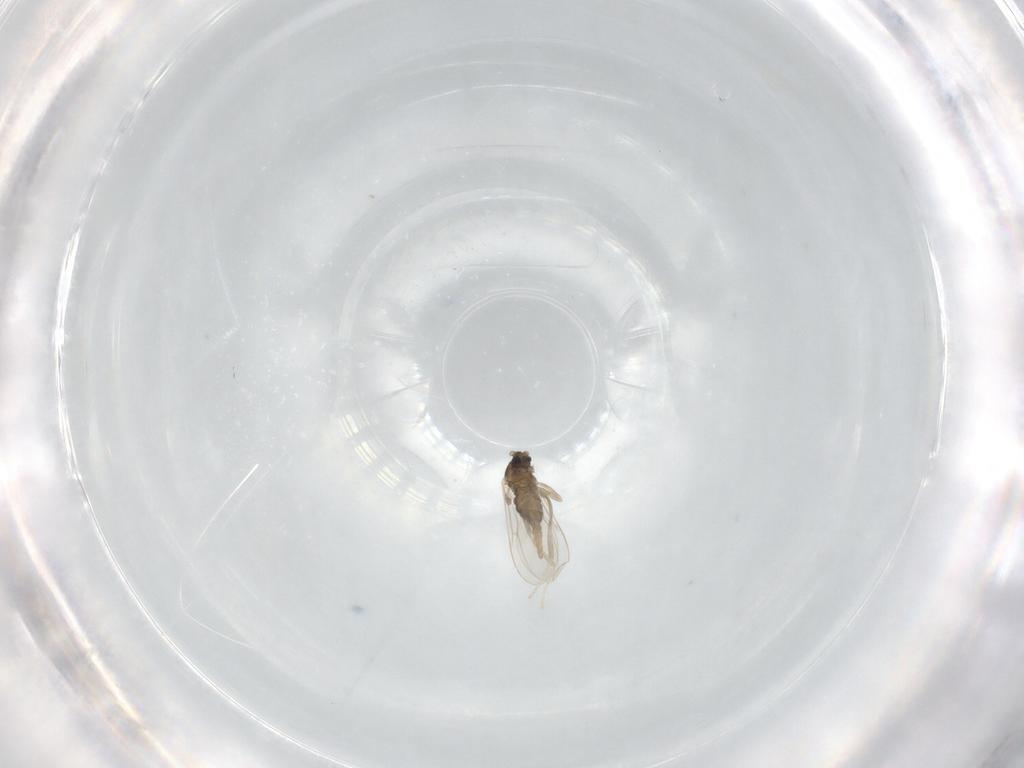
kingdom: Animalia
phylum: Arthropoda
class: Insecta
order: Diptera
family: Cecidomyiidae
